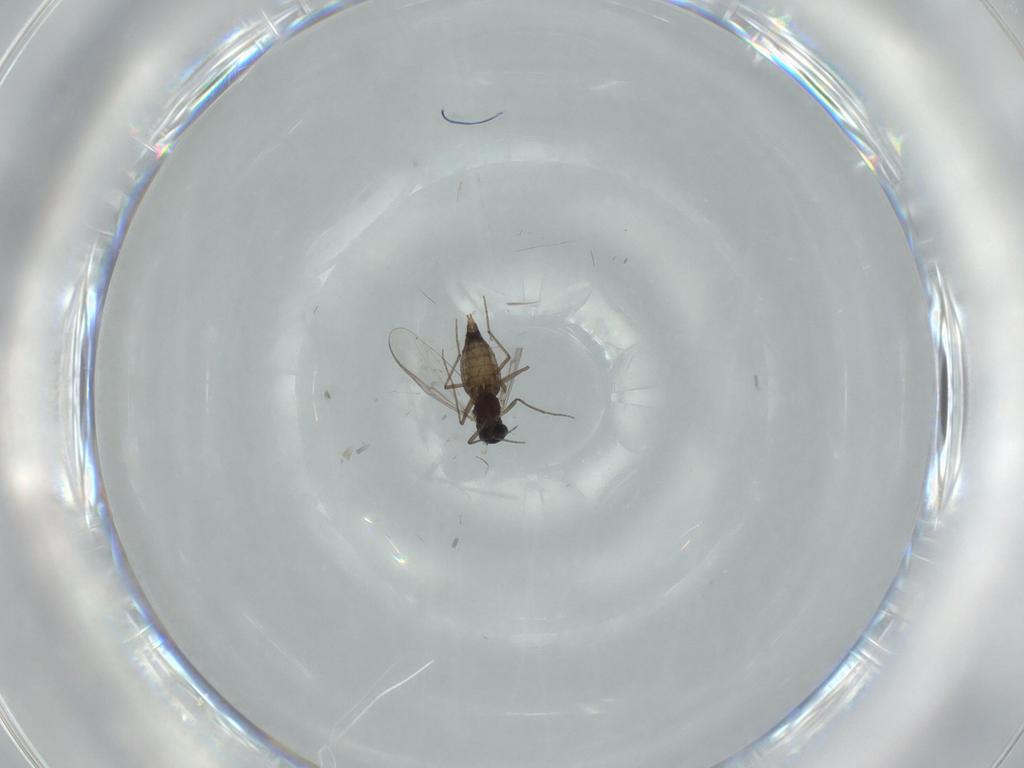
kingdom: Animalia
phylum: Arthropoda
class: Insecta
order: Diptera
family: Chironomidae
